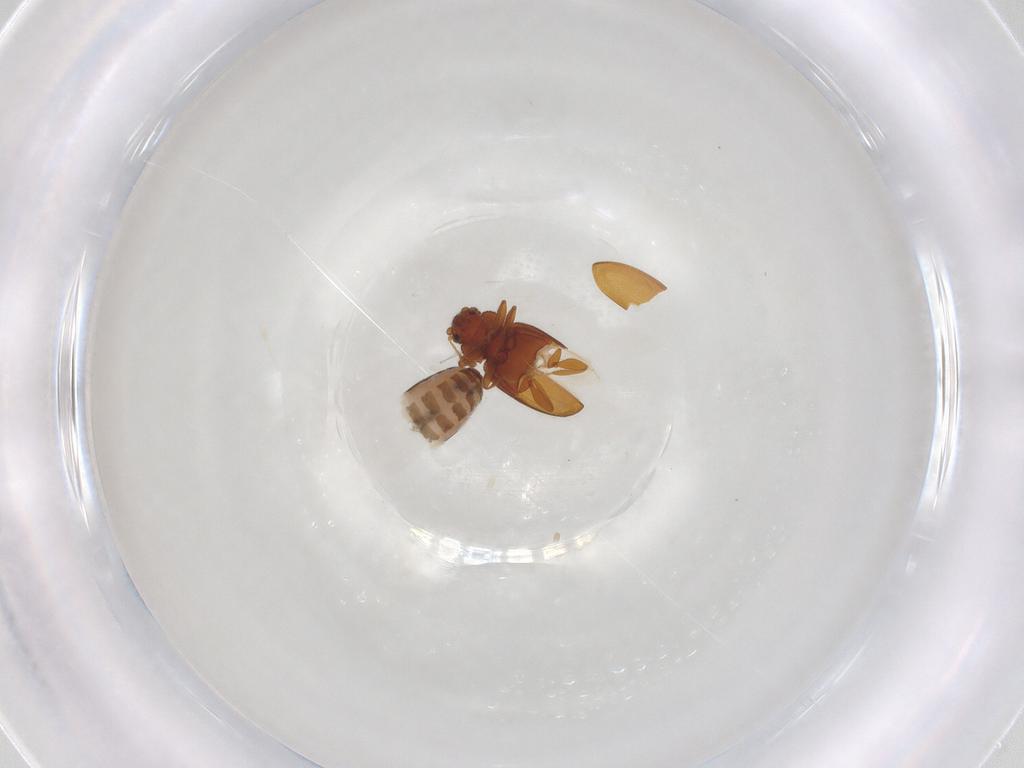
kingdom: Animalia
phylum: Arthropoda
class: Insecta
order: Coleoptera
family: Latridiidae
